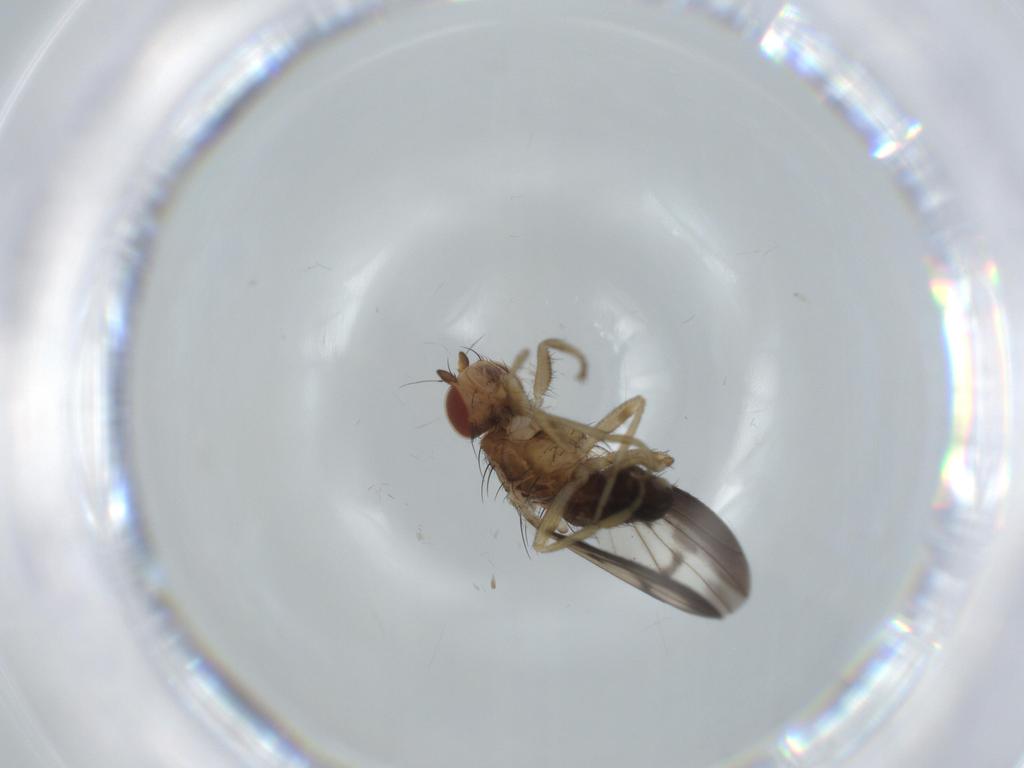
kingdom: Animalia
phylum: Arthropoda
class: Insecta
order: Diptera
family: Heleomyzidae
